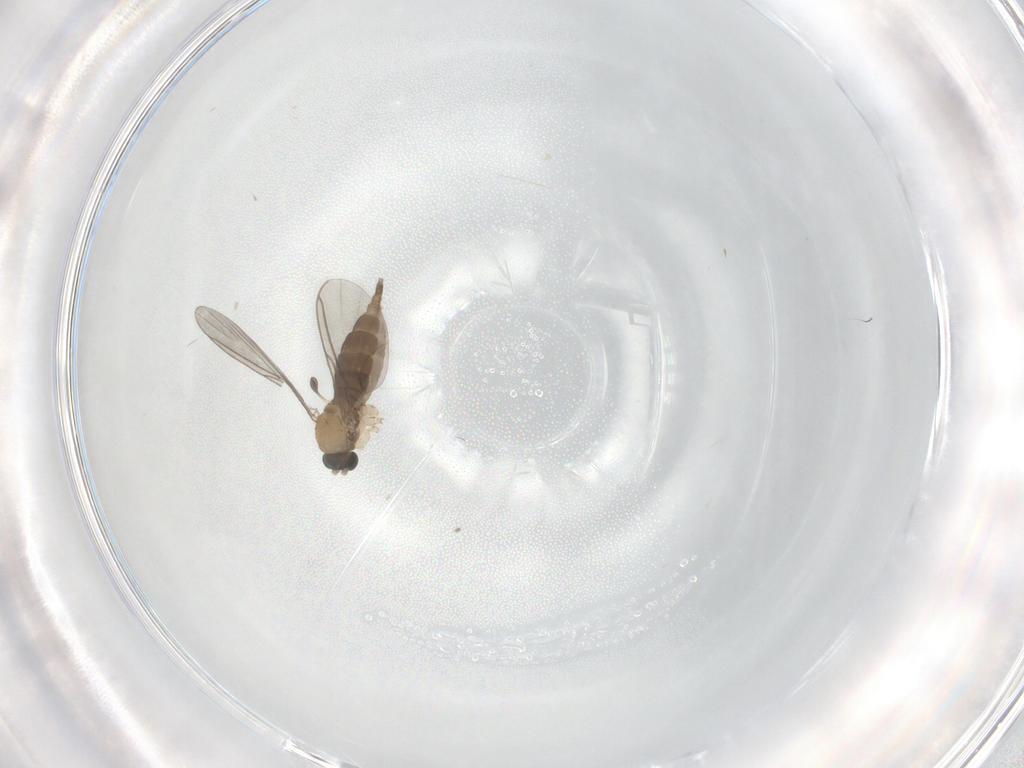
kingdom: Animalia
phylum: Arthropoda
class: Insecta
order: Diptera
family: Sciaridae
